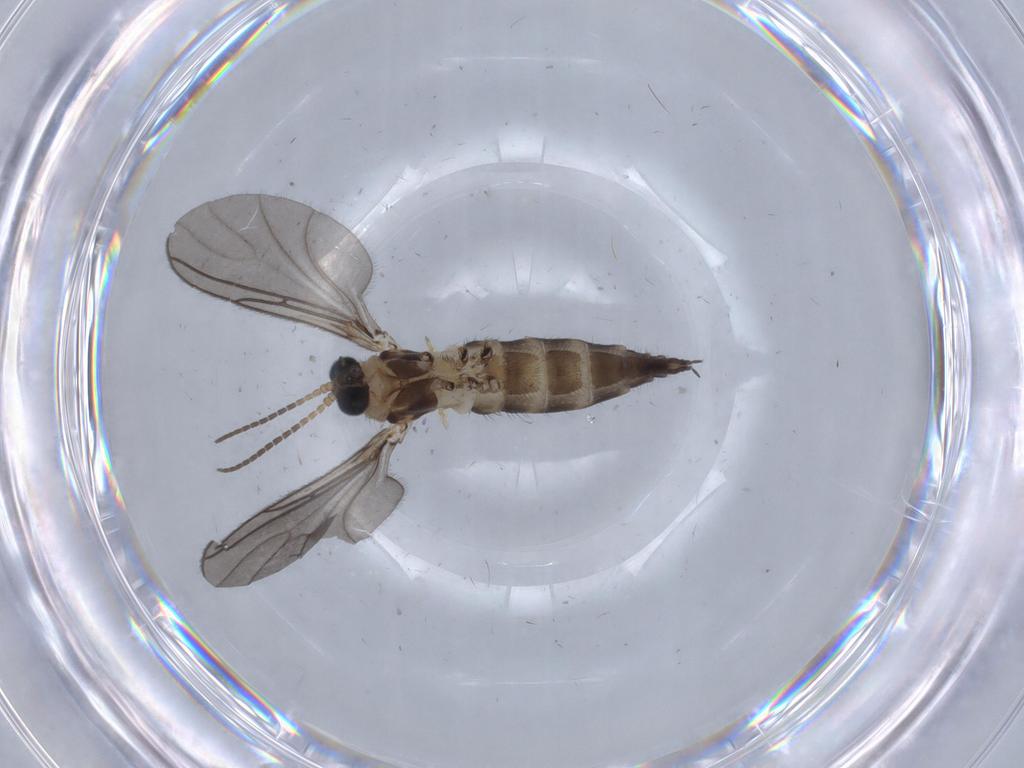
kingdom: Animalia
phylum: Arthropoda
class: Insecta
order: Diptera
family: Sciaridae
